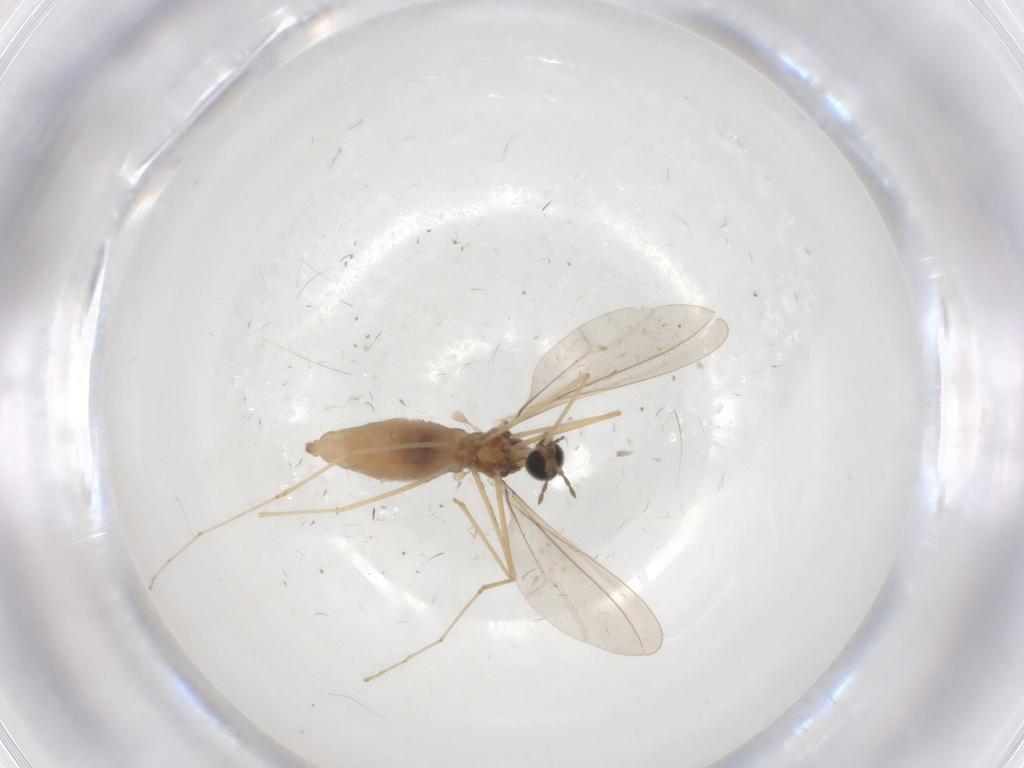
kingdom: Animalia
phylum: Arthropoda
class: Insecta
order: Diptera
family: Cecidomyiidae
